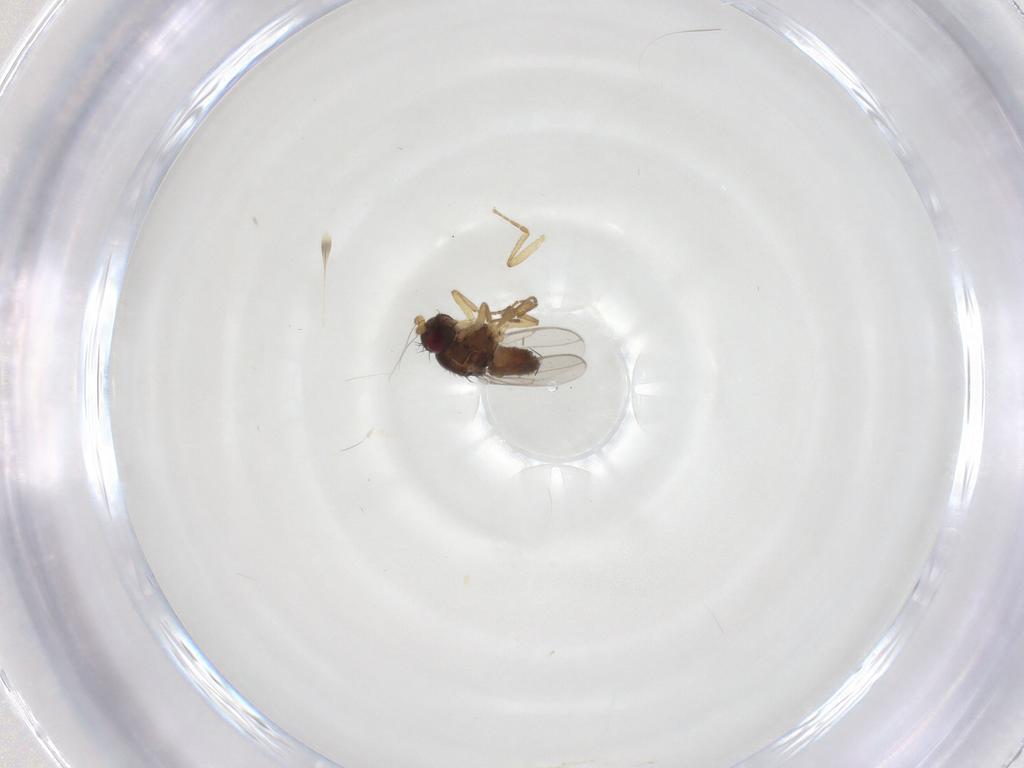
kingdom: Animalia
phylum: Arthropoda
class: Insecta
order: Diptera
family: Sphaeroceridae
